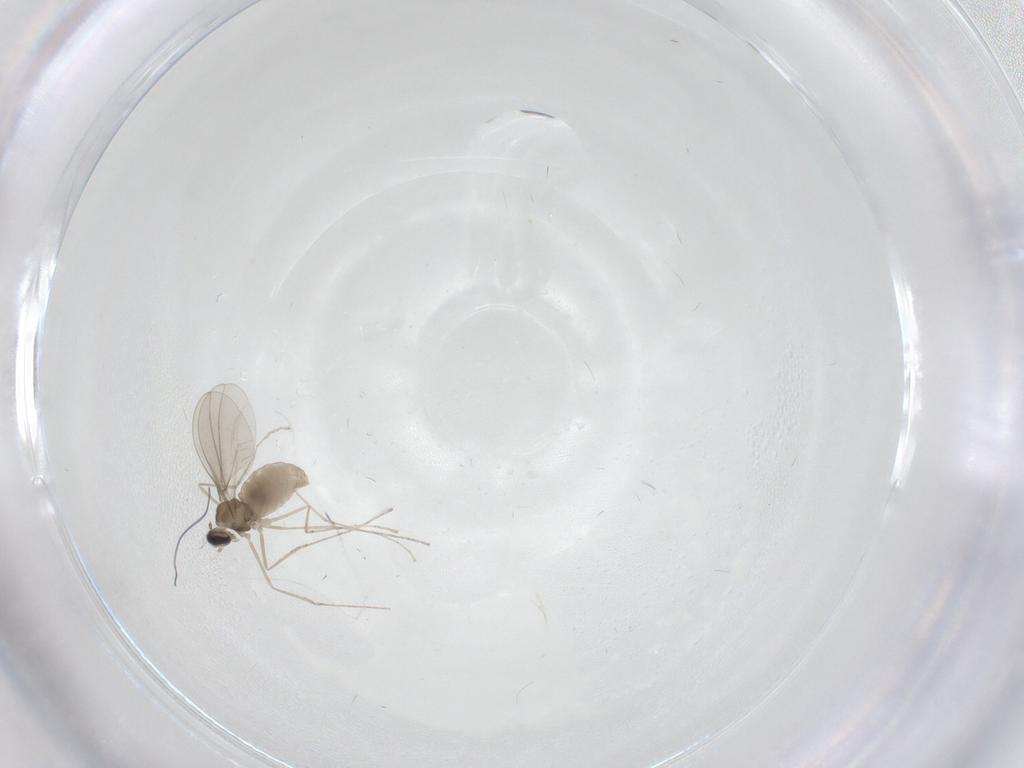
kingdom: Animalia
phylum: Arthropoda
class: Insecta
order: Diptera
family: Cecidomyiidae
